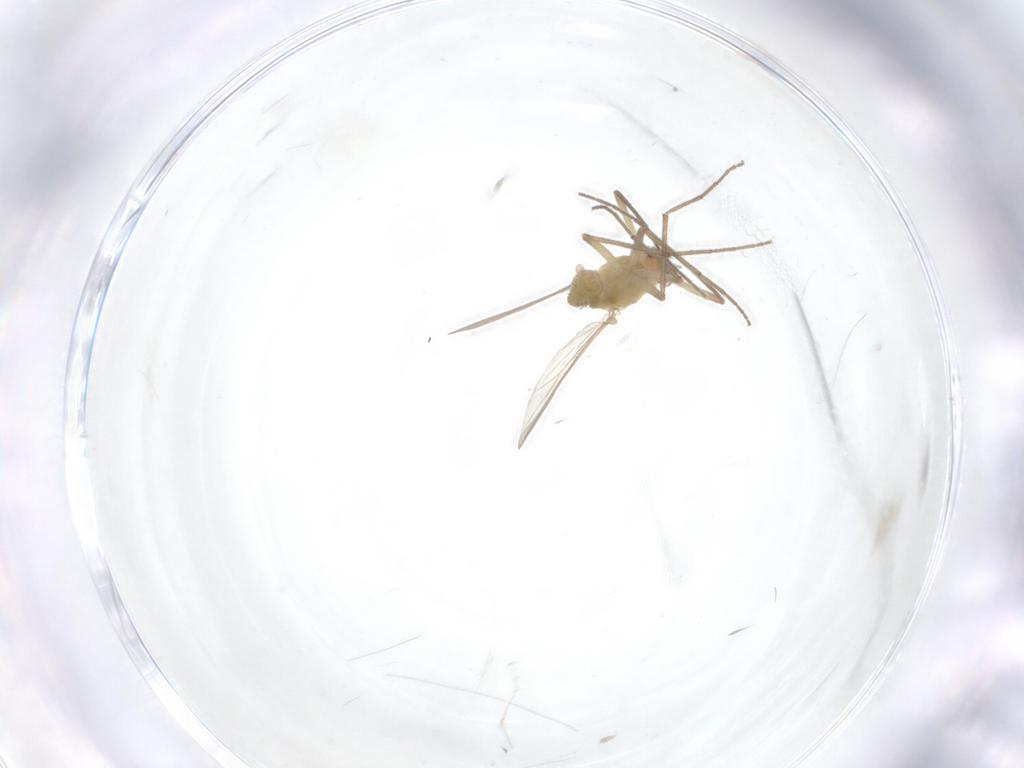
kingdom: Animalia
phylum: Arthropoda
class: Insecta
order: Diptera
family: Chironomidae
